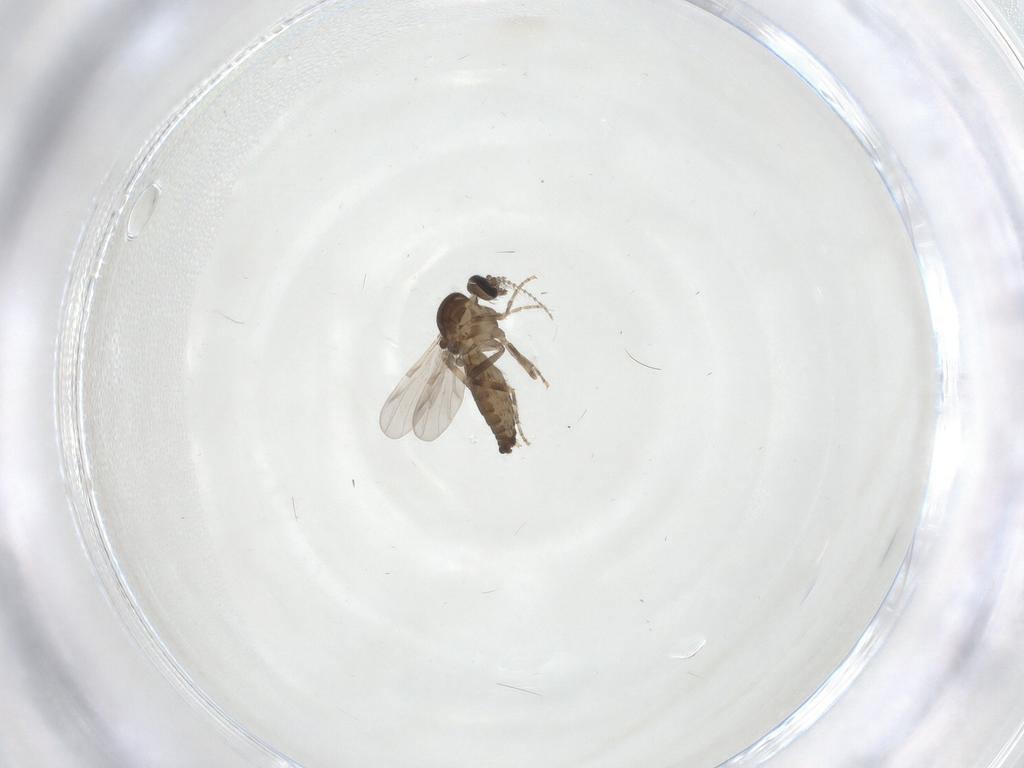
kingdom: Animalia
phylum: Arthropoda
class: Insecta
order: Diptera
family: Ceratopogonidae
